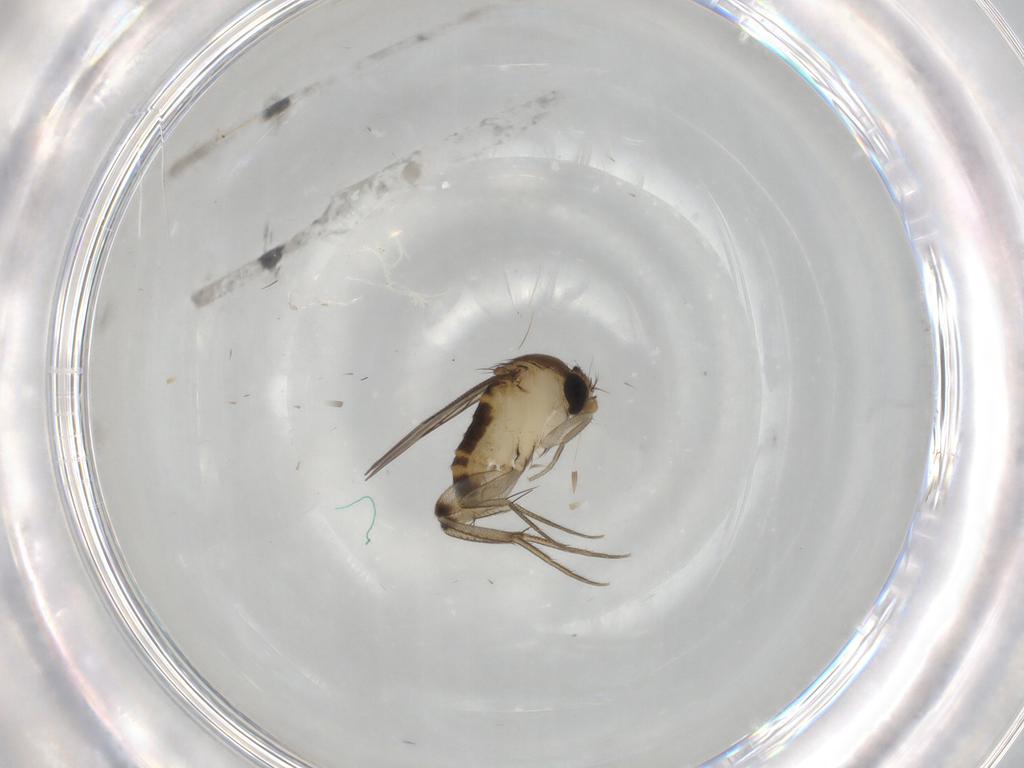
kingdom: Animalia
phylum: Arthropoda
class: Insecta
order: Diptera
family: Phoridae
